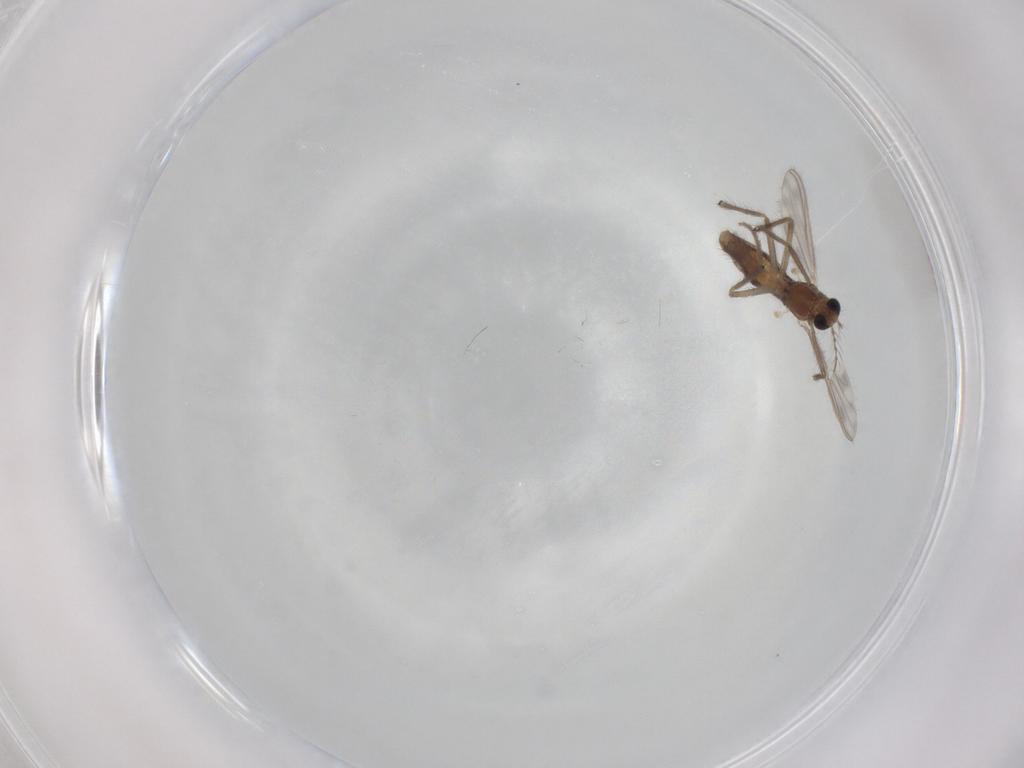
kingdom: Animalia
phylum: Arthropoda
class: Insecta
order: Diptera
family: Chironomidae
